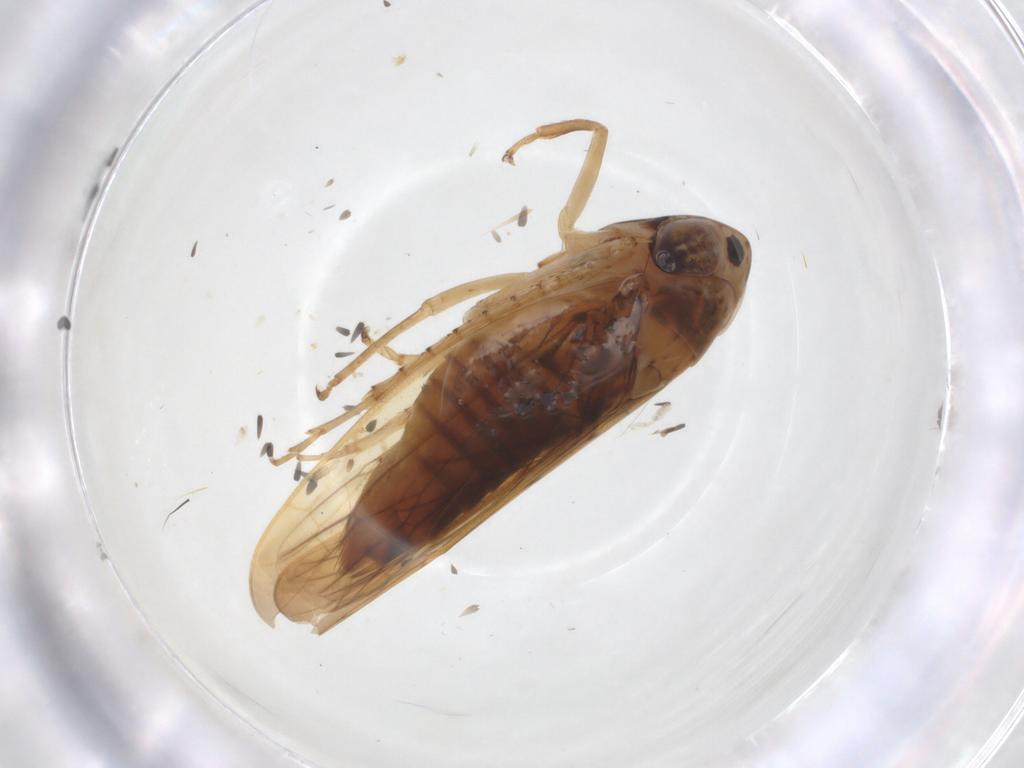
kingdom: Animalia
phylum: Arthropoda
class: Insecta
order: Hemiptera
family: Cicadellidae
